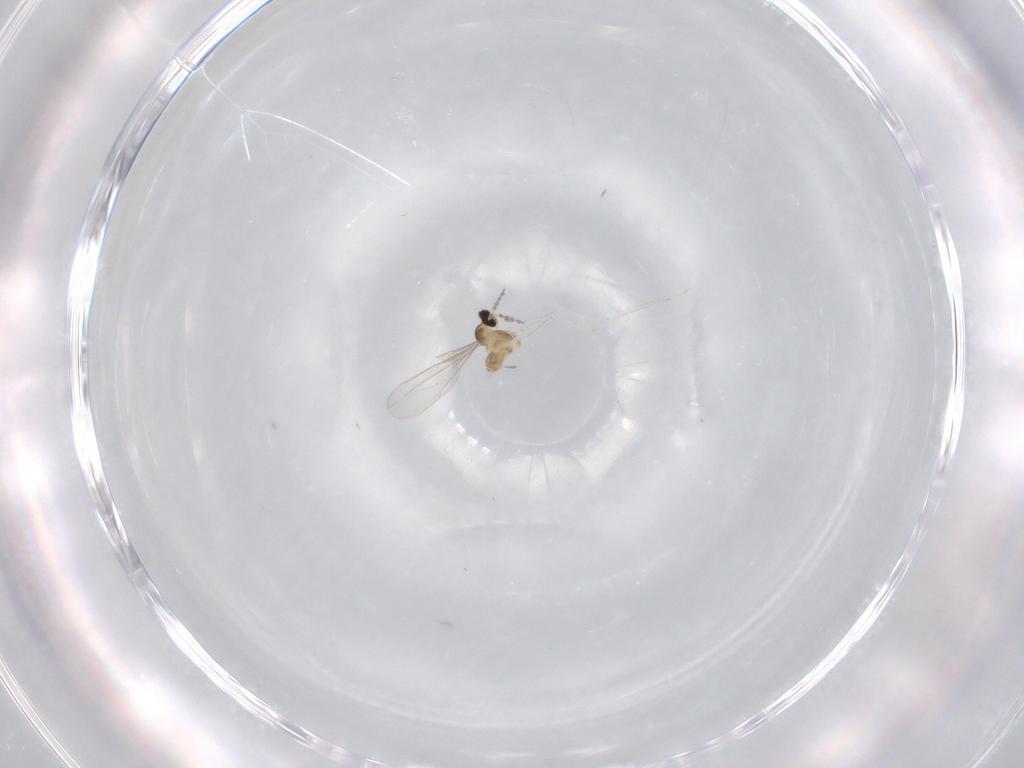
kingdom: Animalia
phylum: Arthropoda
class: Insecta
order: Diptera
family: Cecidomyiidae
